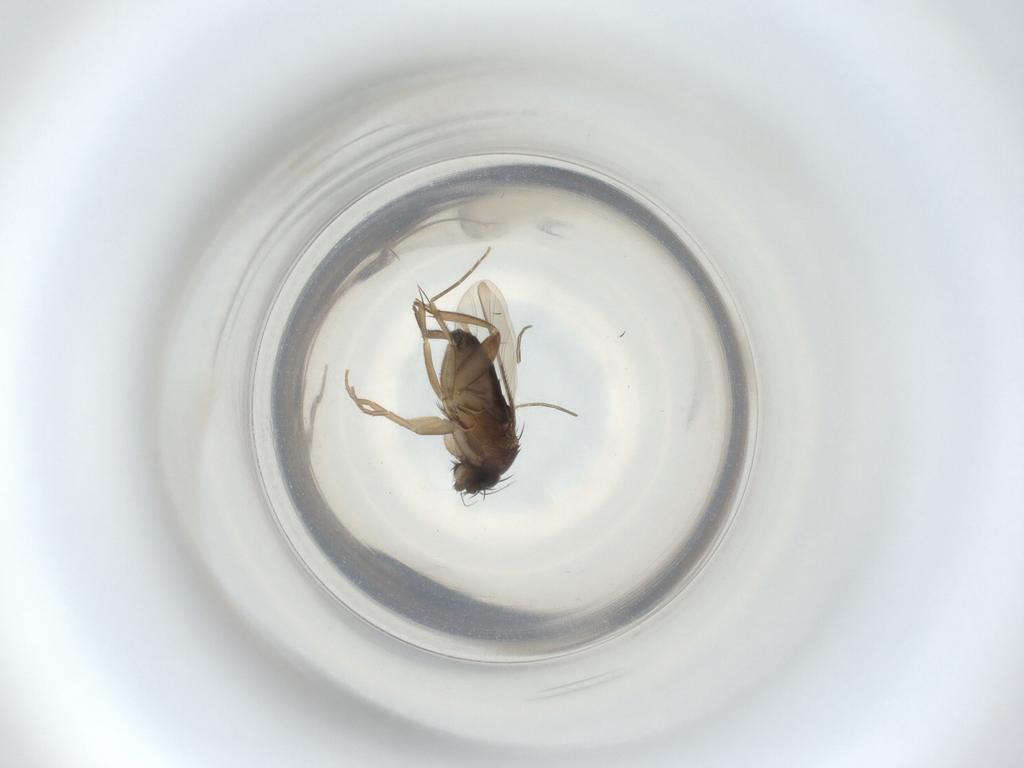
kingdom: Animalia
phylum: Arthropoda
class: Insecta
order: Diptera
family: Phoridae
